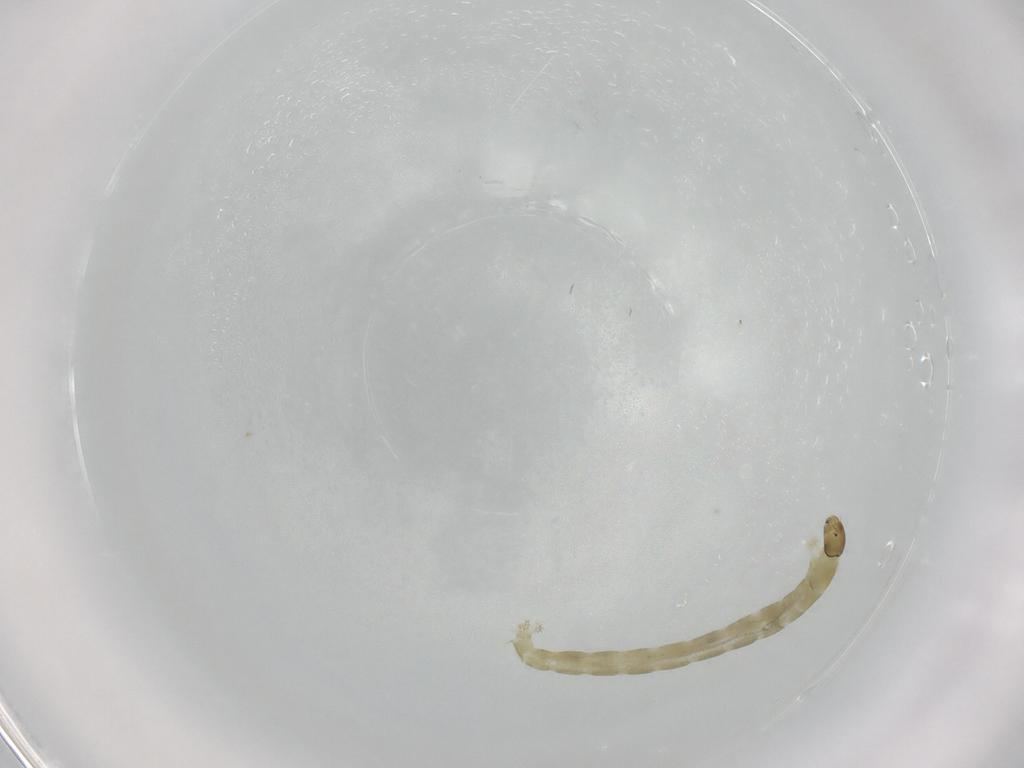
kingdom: Animalia
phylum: Arthropoda
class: Insecta
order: Diptera
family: Chironomidae
